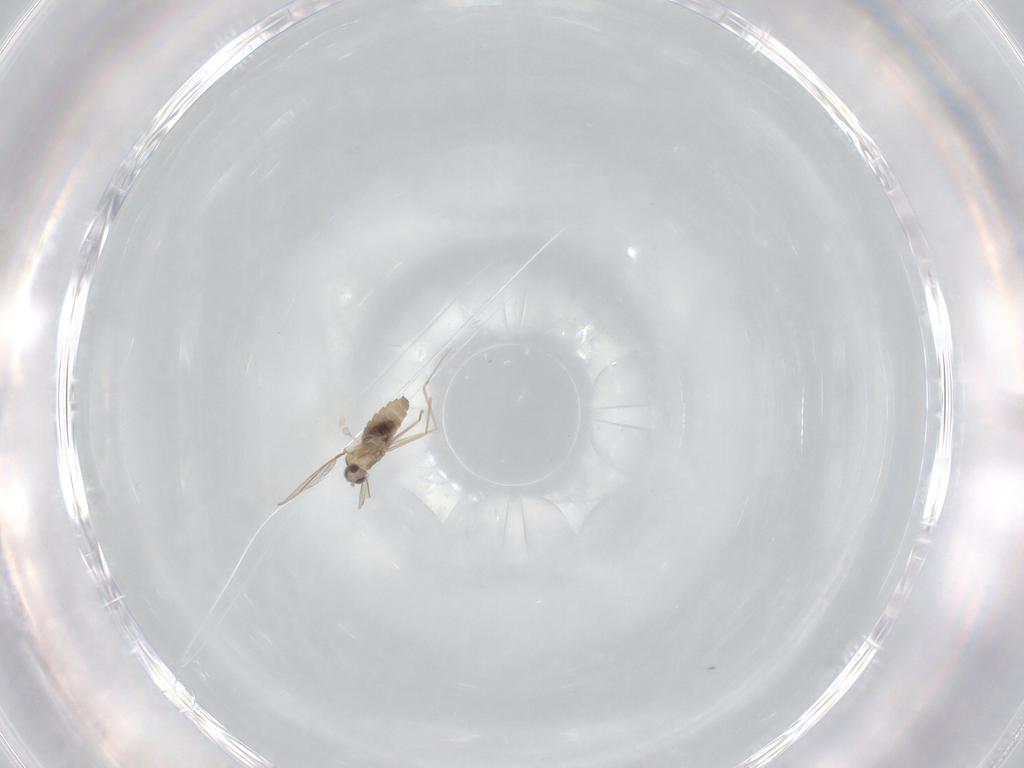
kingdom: Animalia
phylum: Arthropoda
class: Insecta
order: Diptera
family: Cecidomyiidae
